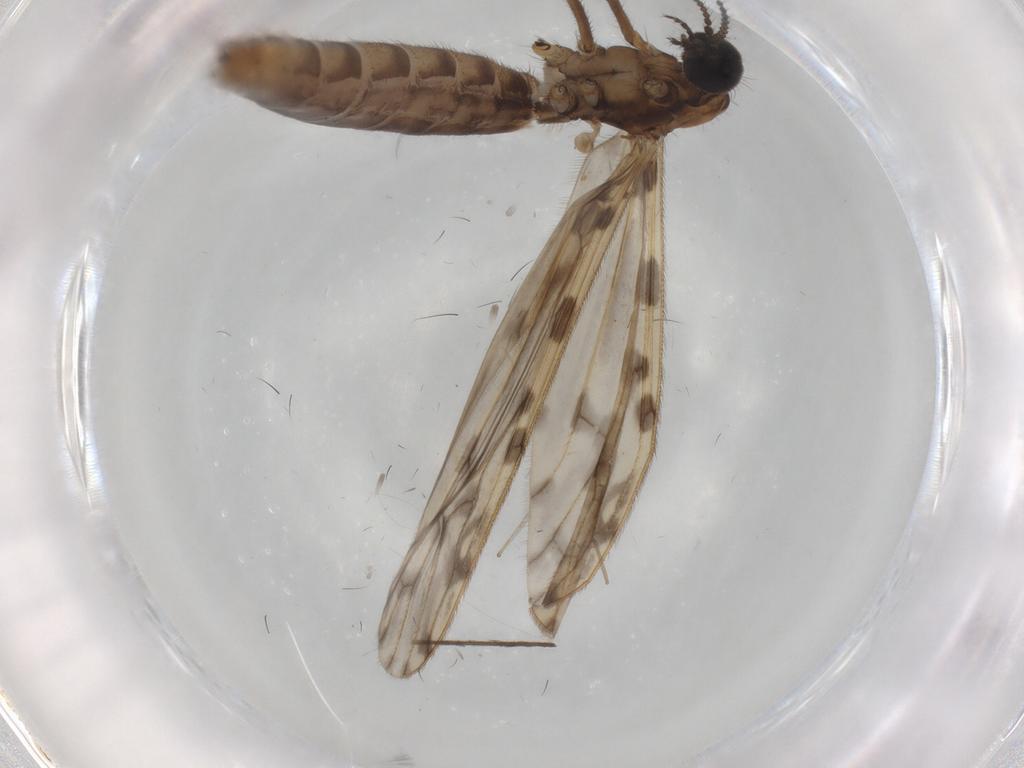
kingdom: Animalia
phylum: Arthropoda
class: Insecta
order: Diptera
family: Limoniidae
